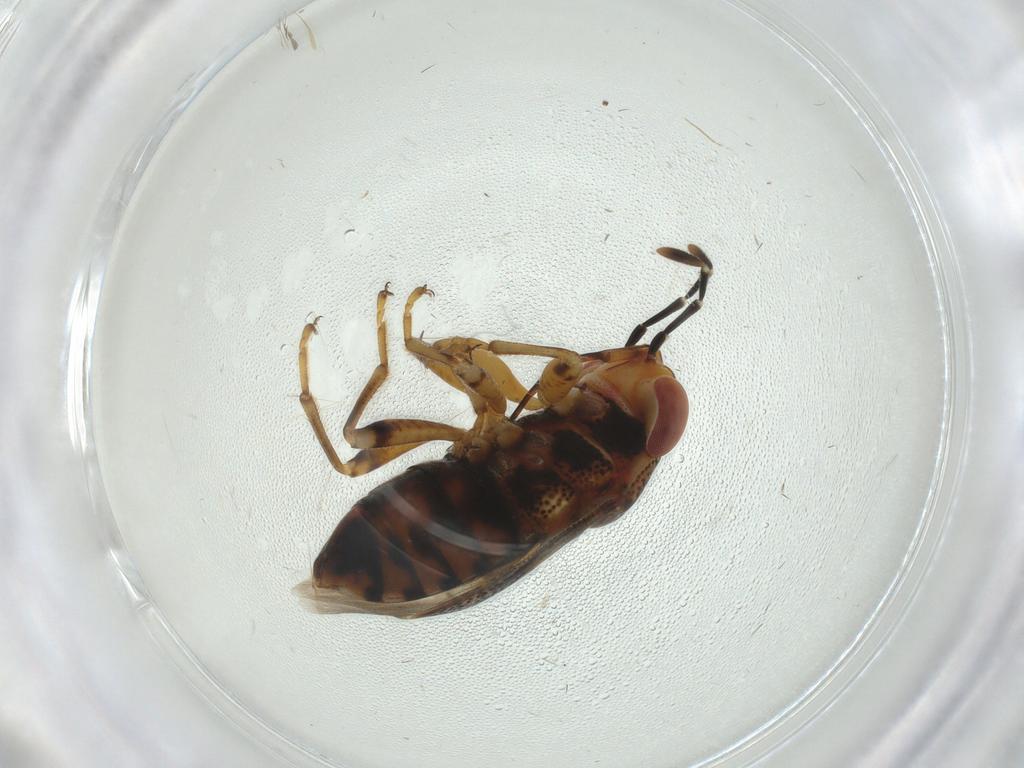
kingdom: Animalia
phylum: Arthropoda
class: Insecta
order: Hemiptera
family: Geocoridae
